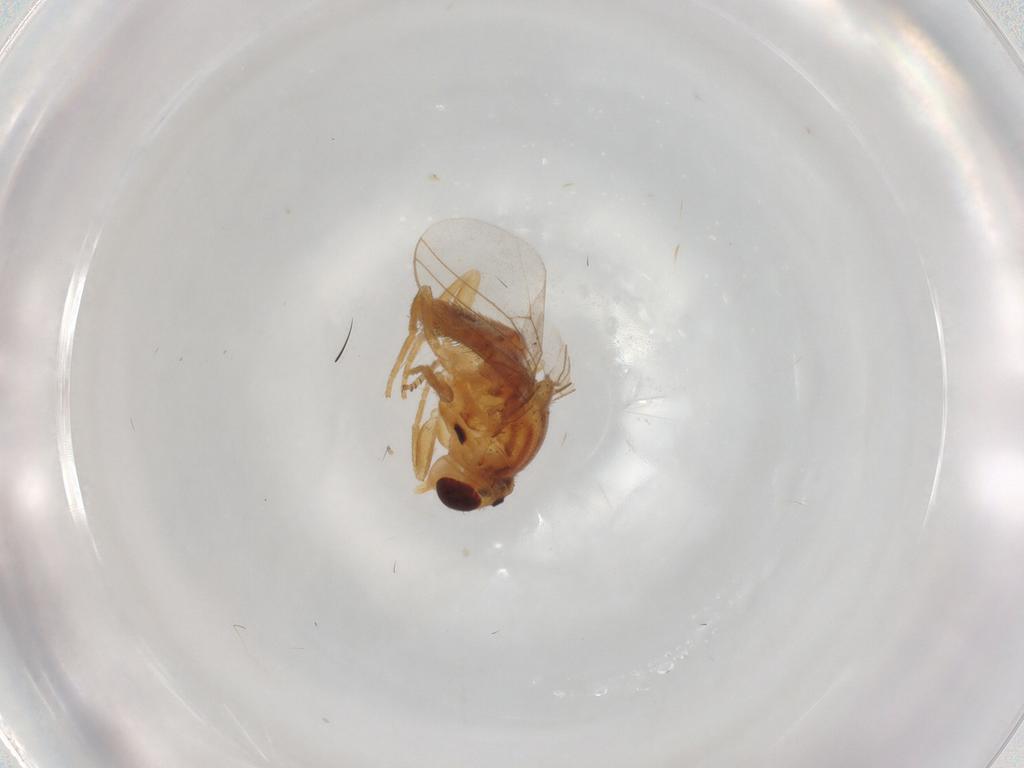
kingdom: Animalia
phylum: Arthropoda
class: Insecta
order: Diptera
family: Chloropidae
